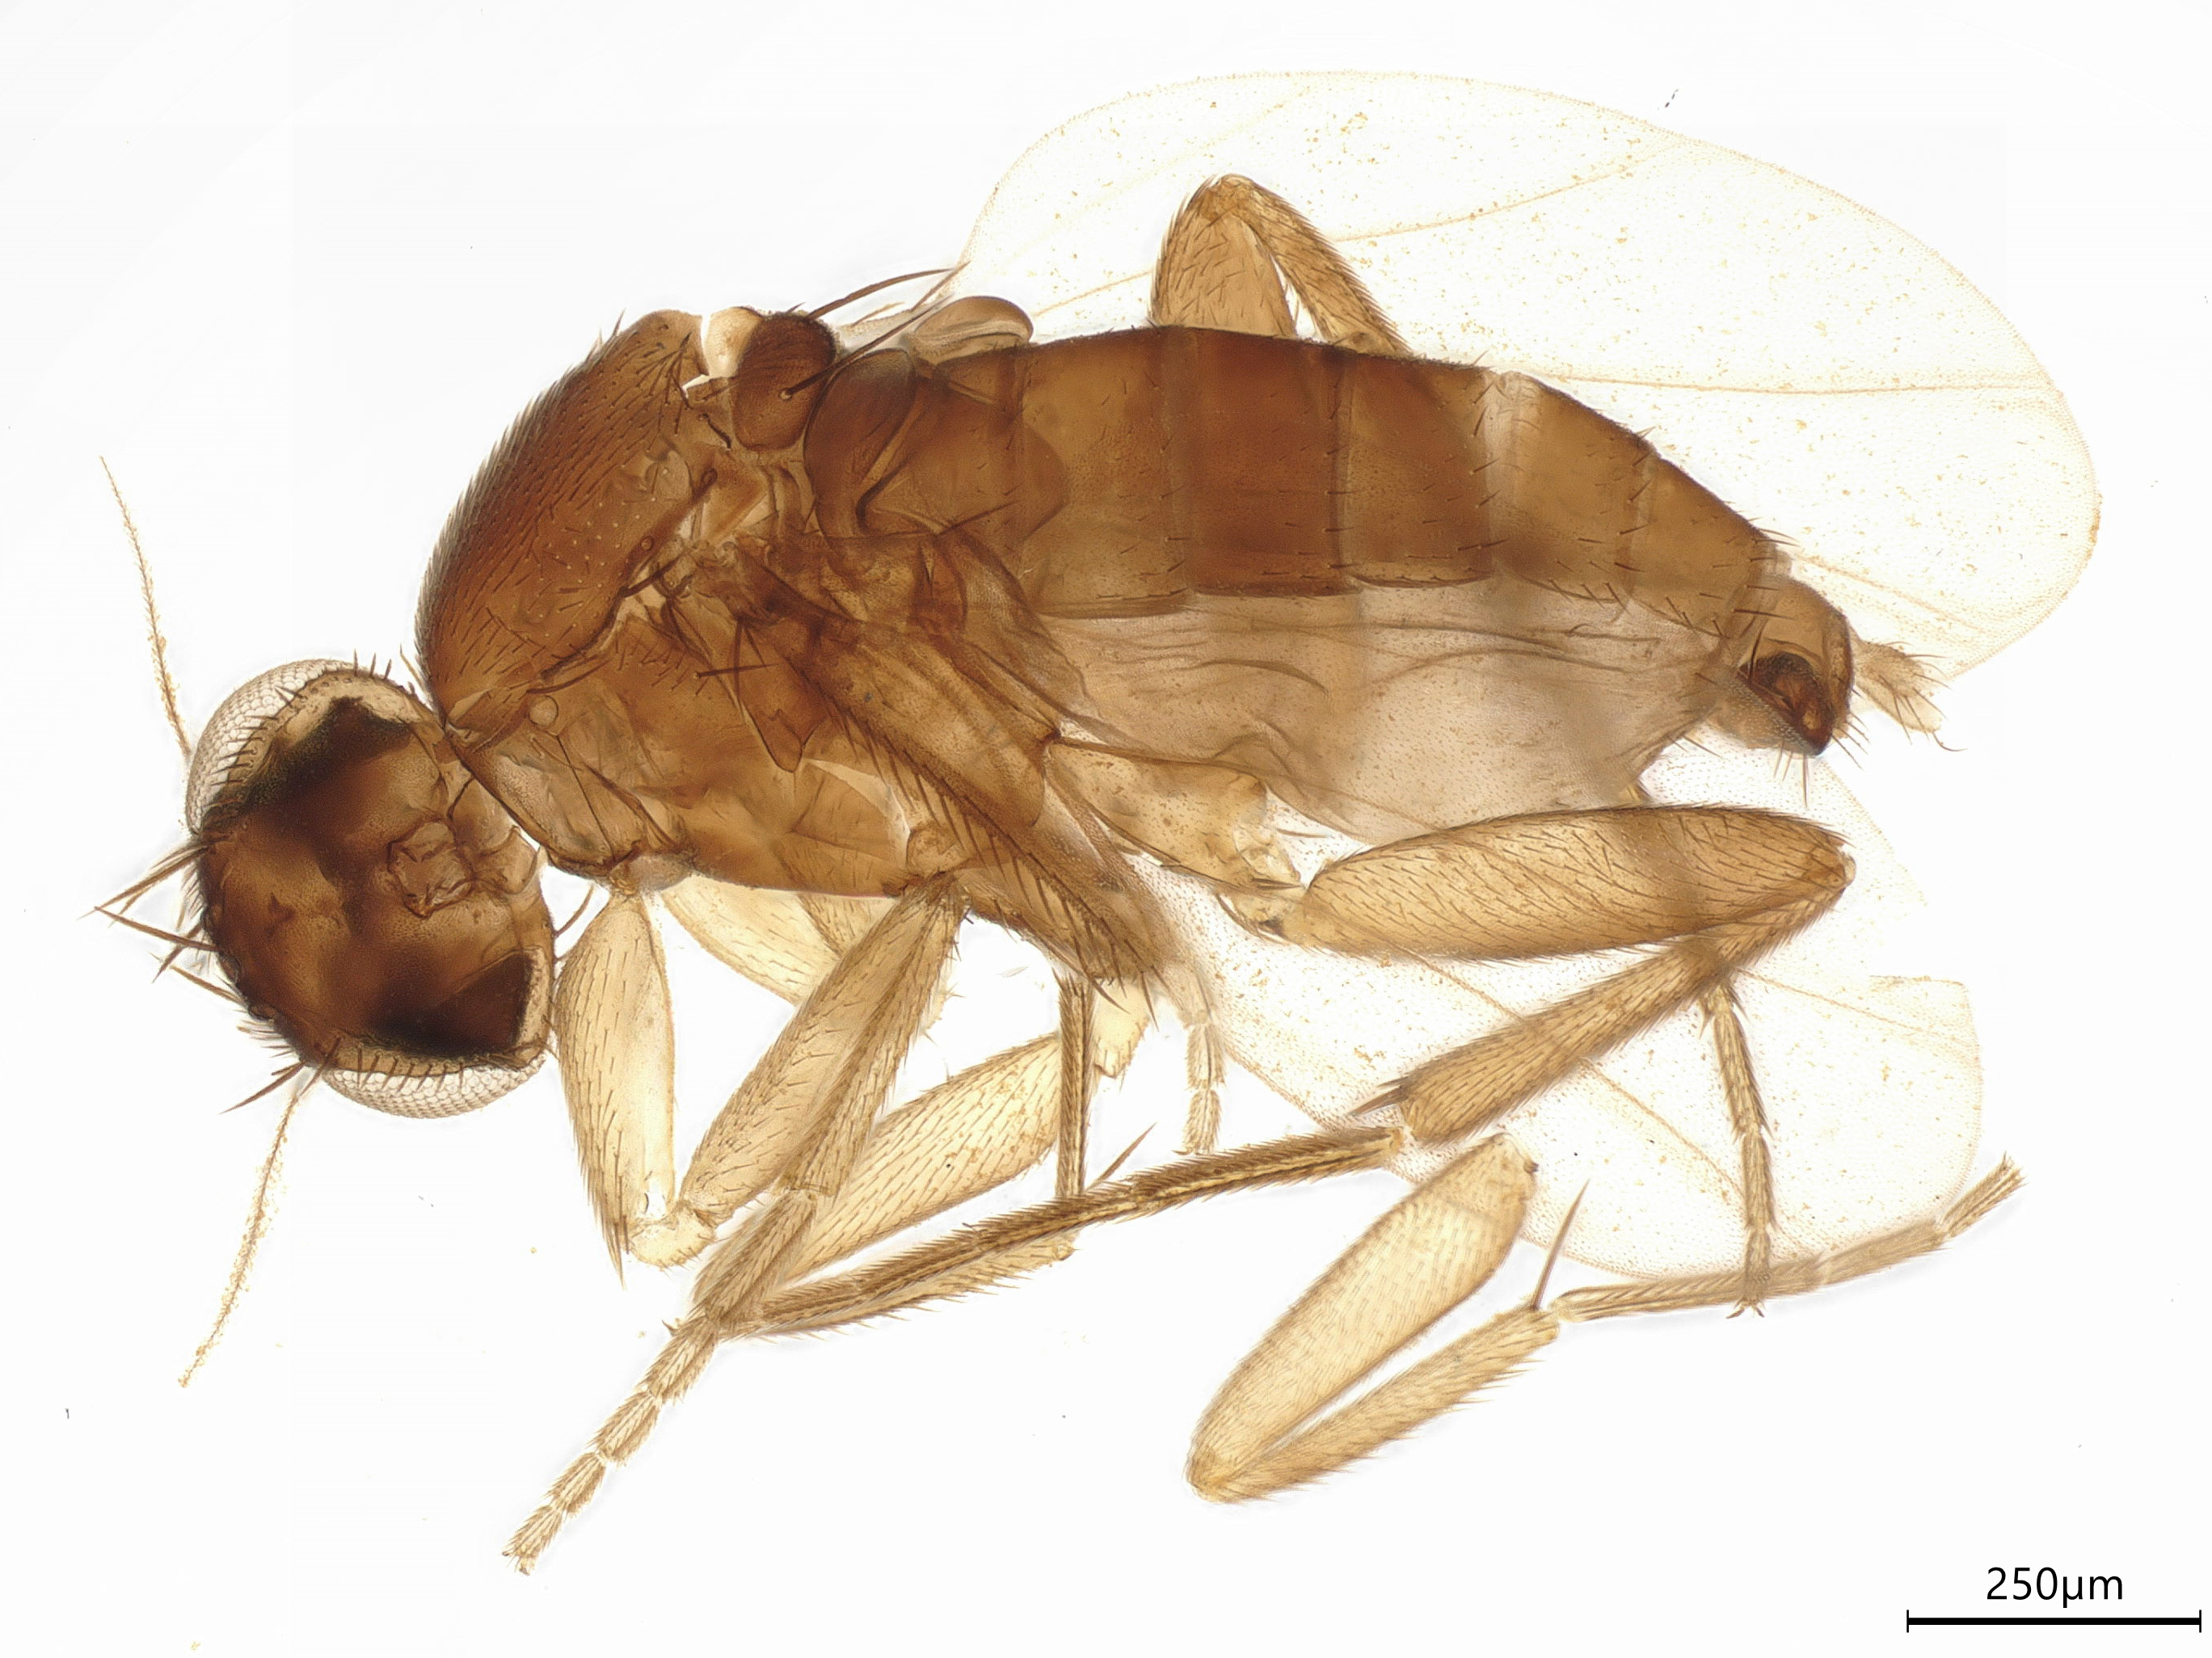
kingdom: Animalia
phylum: Arthropoda
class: Insecta
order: Diptera
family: Phoridae
